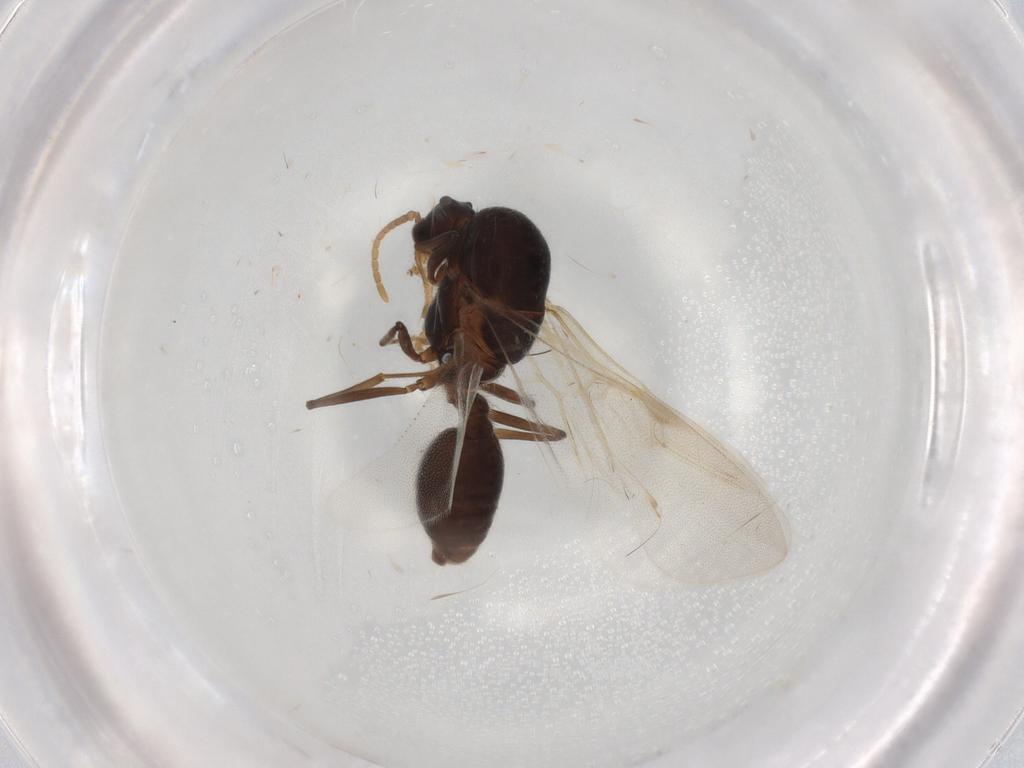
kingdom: Animalia
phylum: Arthropoda
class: Insecta
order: Hymenoptera
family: Formicidae
